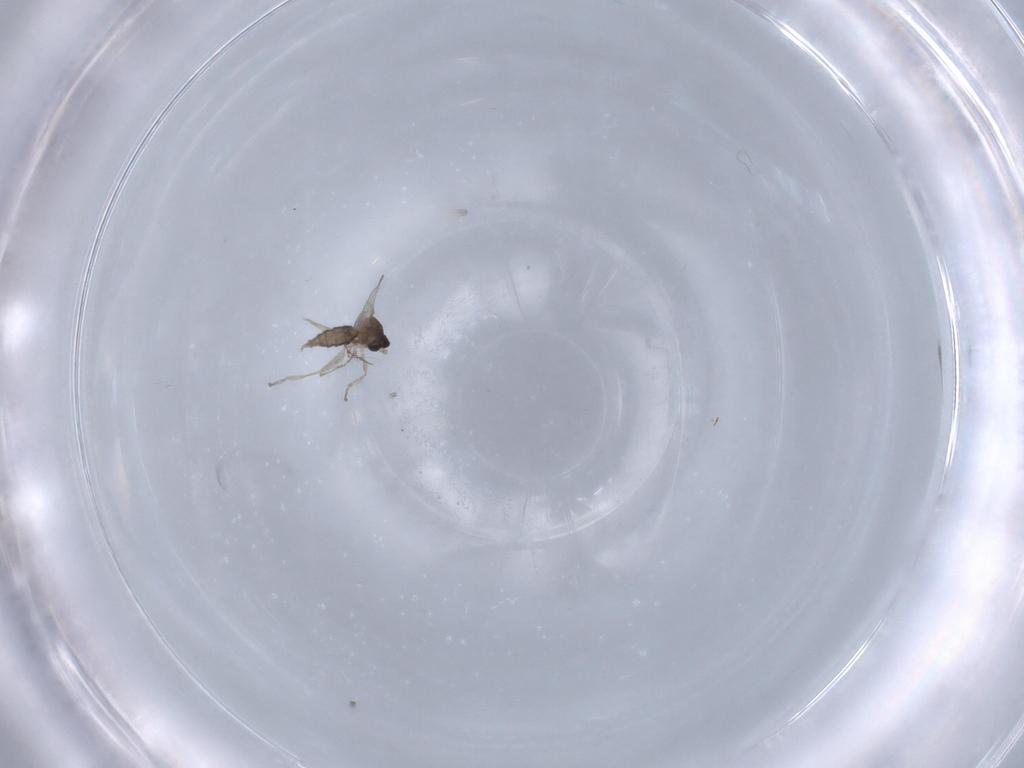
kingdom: Animalia
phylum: Arthropoda
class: Insecta
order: Diptera
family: Cecidomyiidae
